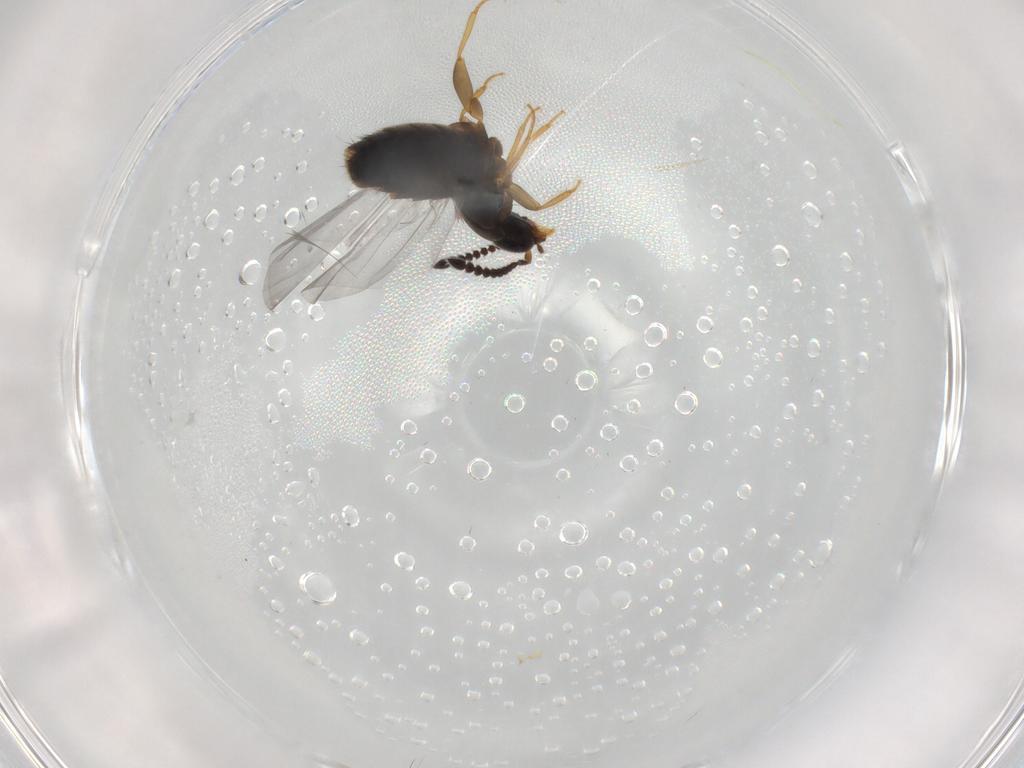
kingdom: Animalia
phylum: Arthropoda
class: Insecta
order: Coleoptera
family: Staphylinidae
